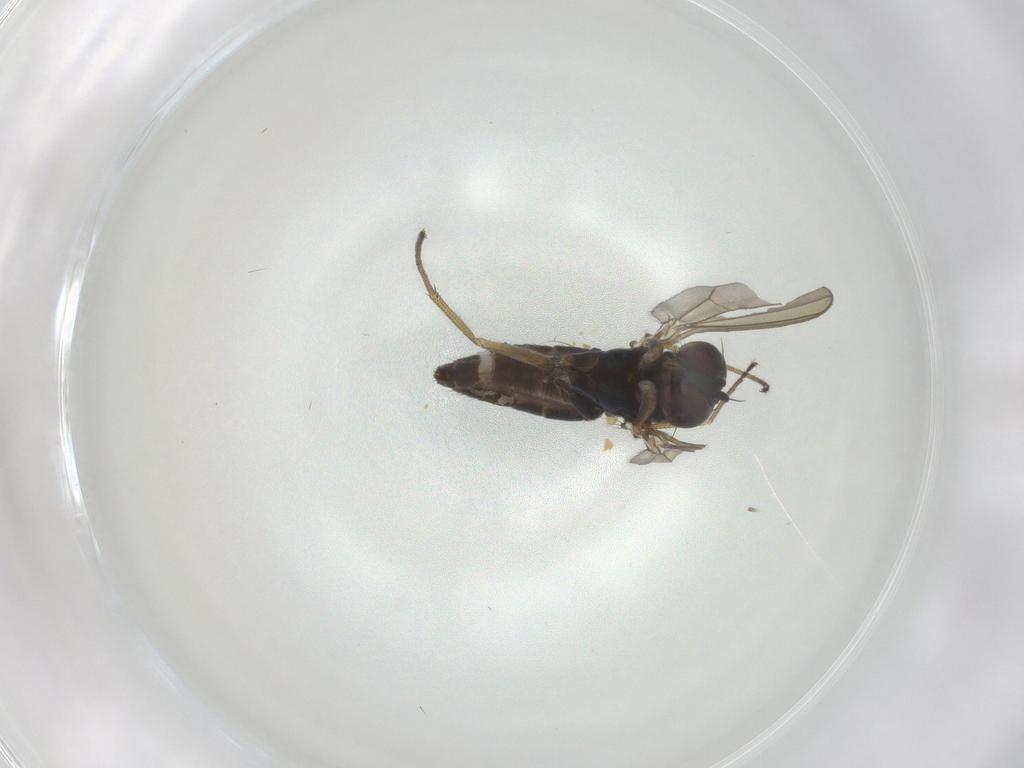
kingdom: Animalia
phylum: Arthropoda
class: Insecta
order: Diptera
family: Dolichopodidae
